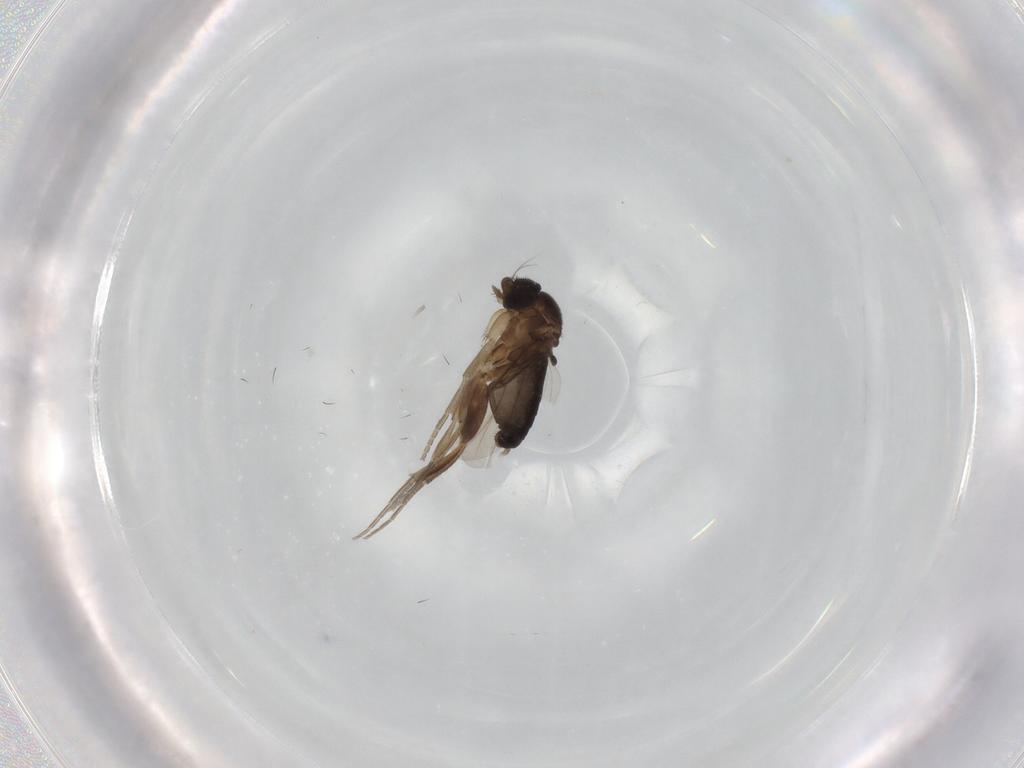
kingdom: Animalia
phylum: Arthropoda
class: Insecta
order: Diptera
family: Phoridae
